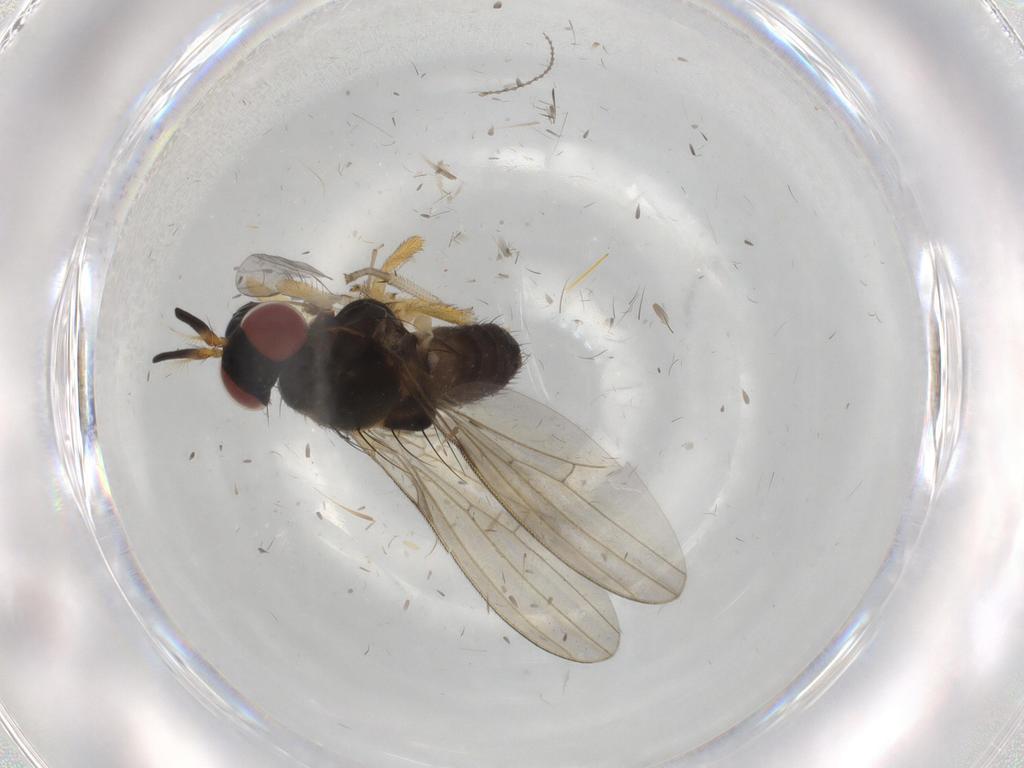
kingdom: Animalia
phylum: Arthropoda
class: Insecta
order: Diptera
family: Lauxaniidae
